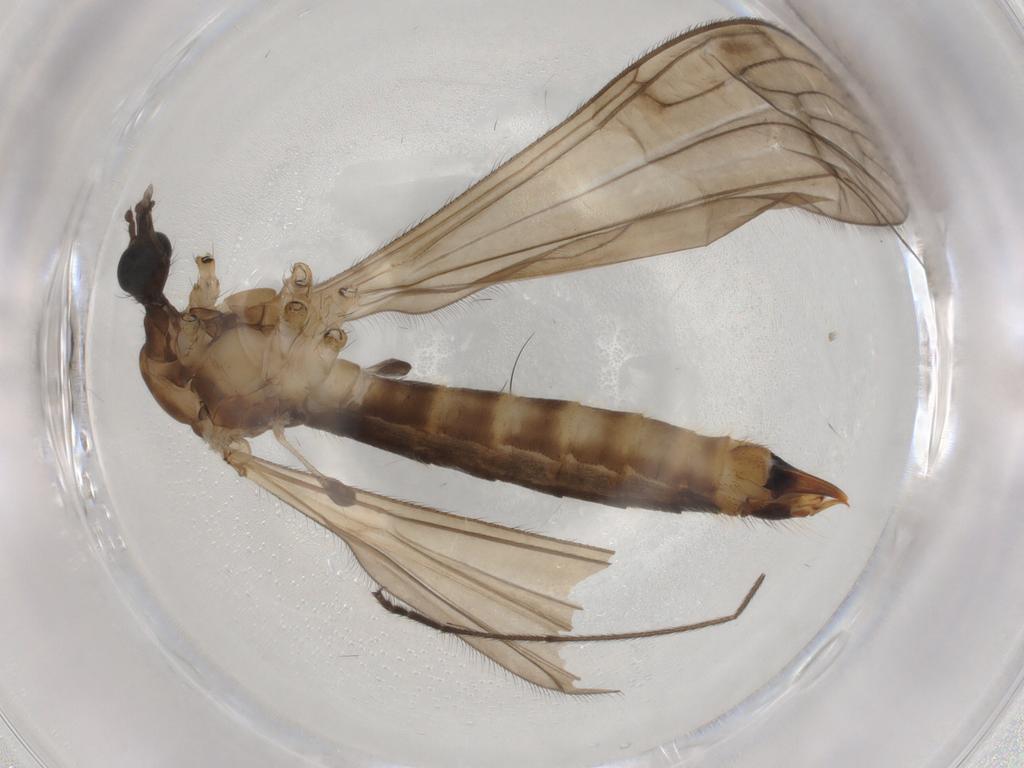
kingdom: Animalia
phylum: Arthropoda
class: Insecta
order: Diptera
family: Limoniidae
